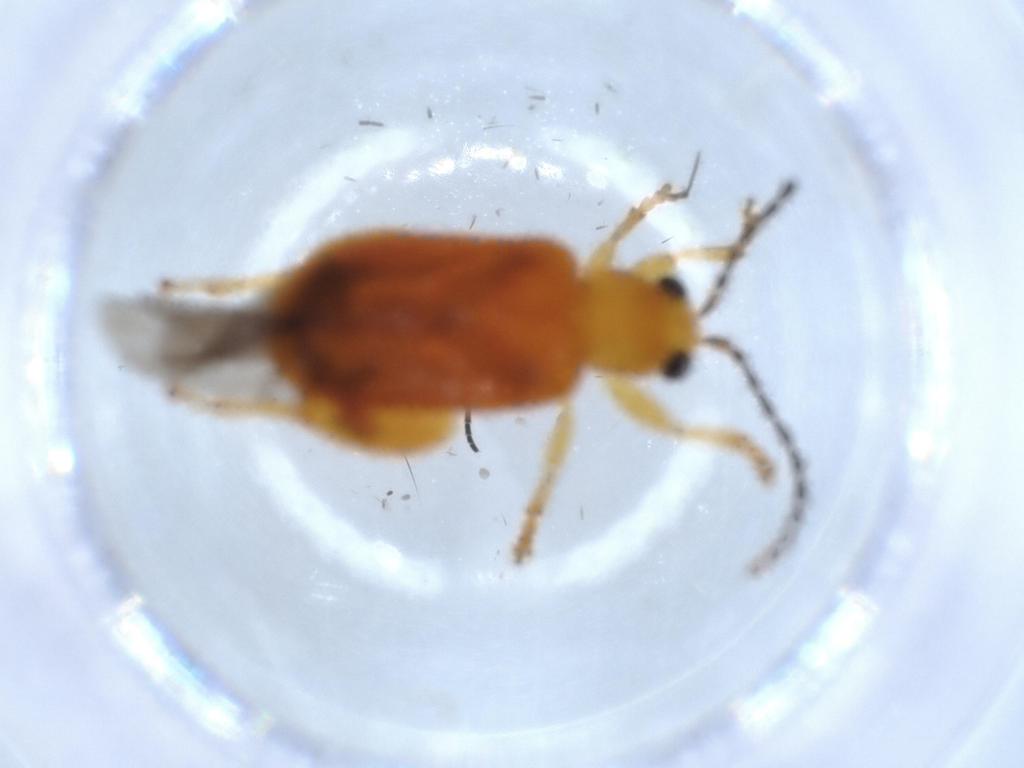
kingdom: Animalia
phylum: Arthropoda
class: Insecta
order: Coleoptera
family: Chrysomelidae
